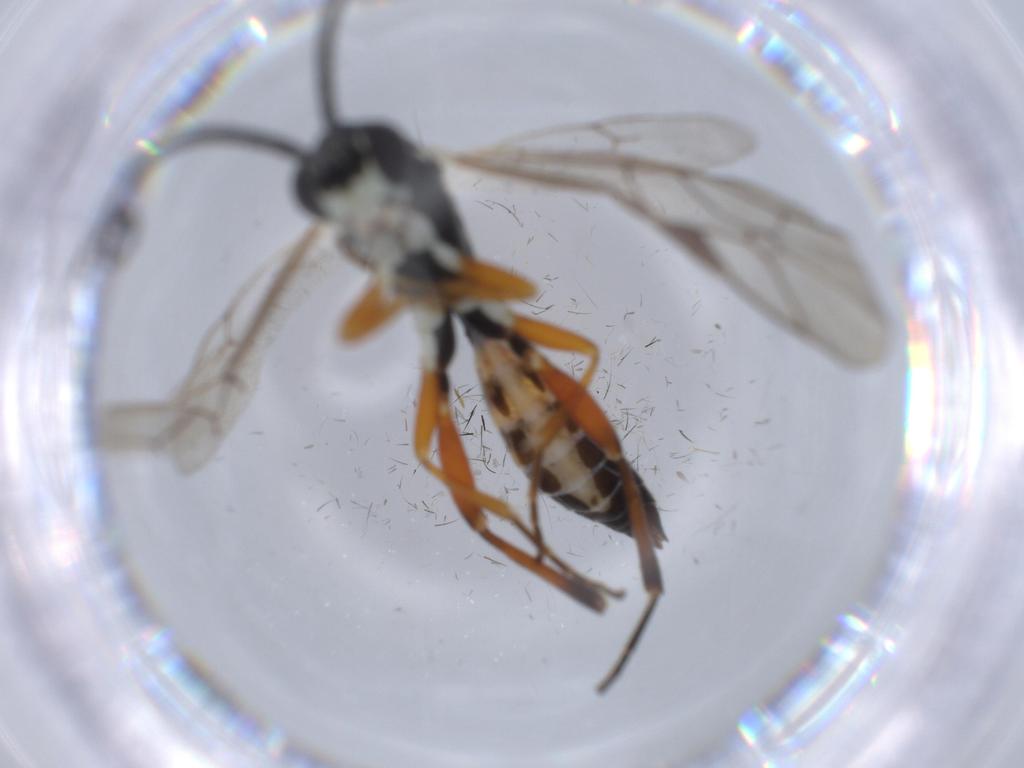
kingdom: Animalia
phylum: Arthropoda
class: Insecta
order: Hymenoptera
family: Diapriidae
